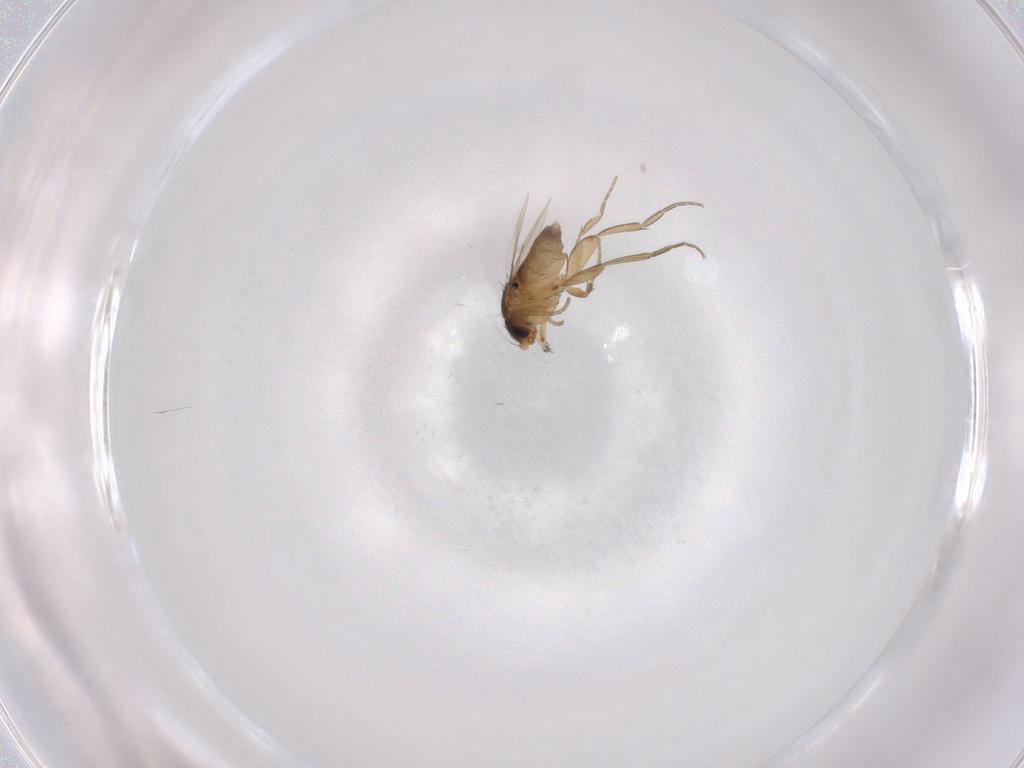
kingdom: Animalia
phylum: Arthropoda
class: Insecta
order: Diptera
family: Phoridae
